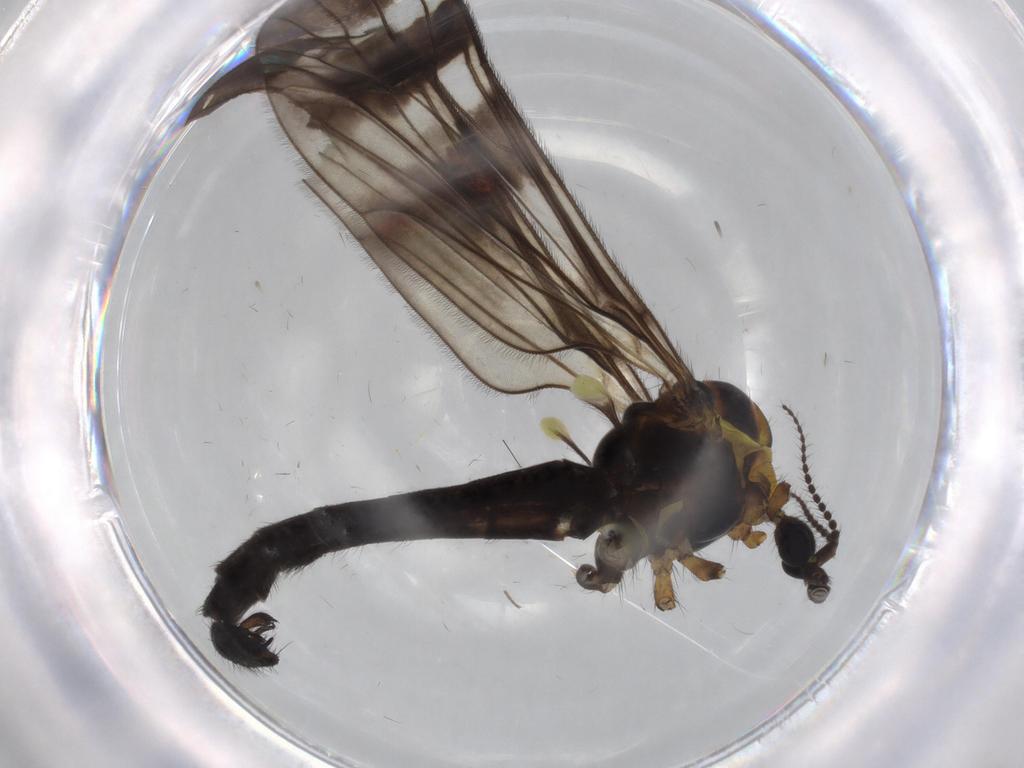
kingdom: Animalia
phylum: Arthropoda
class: Insecta
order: Diptera
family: Limoniidae
